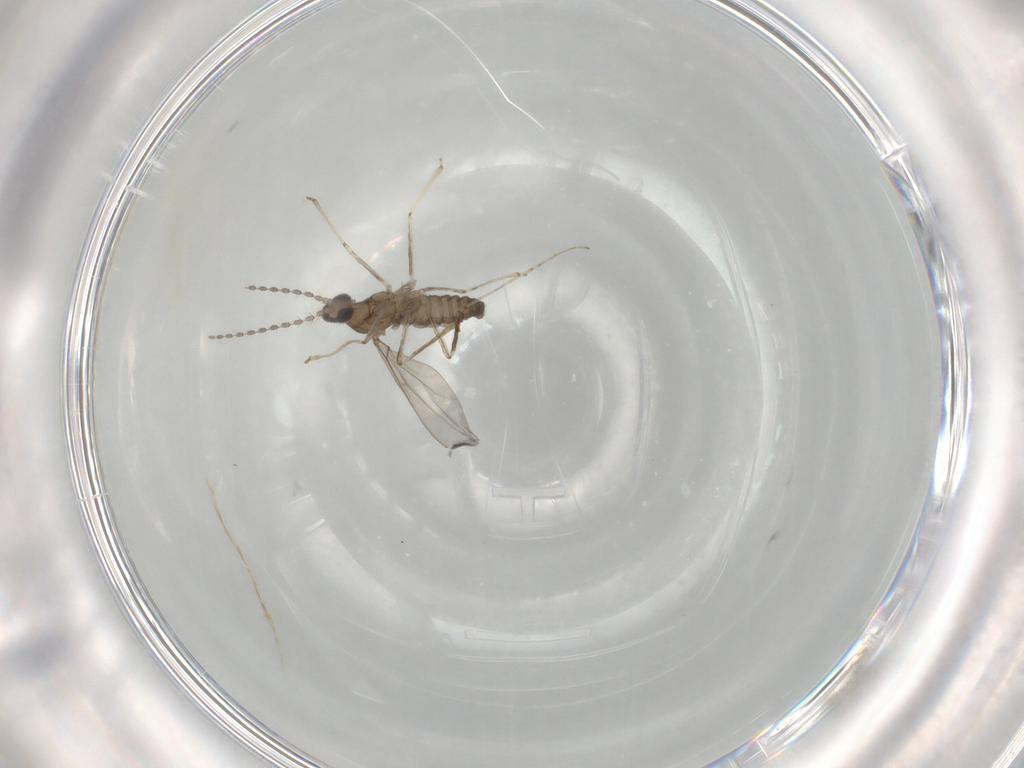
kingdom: Animalia
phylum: Arthropoda
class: Insecta
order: Diptera
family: Cecidomyiidae
